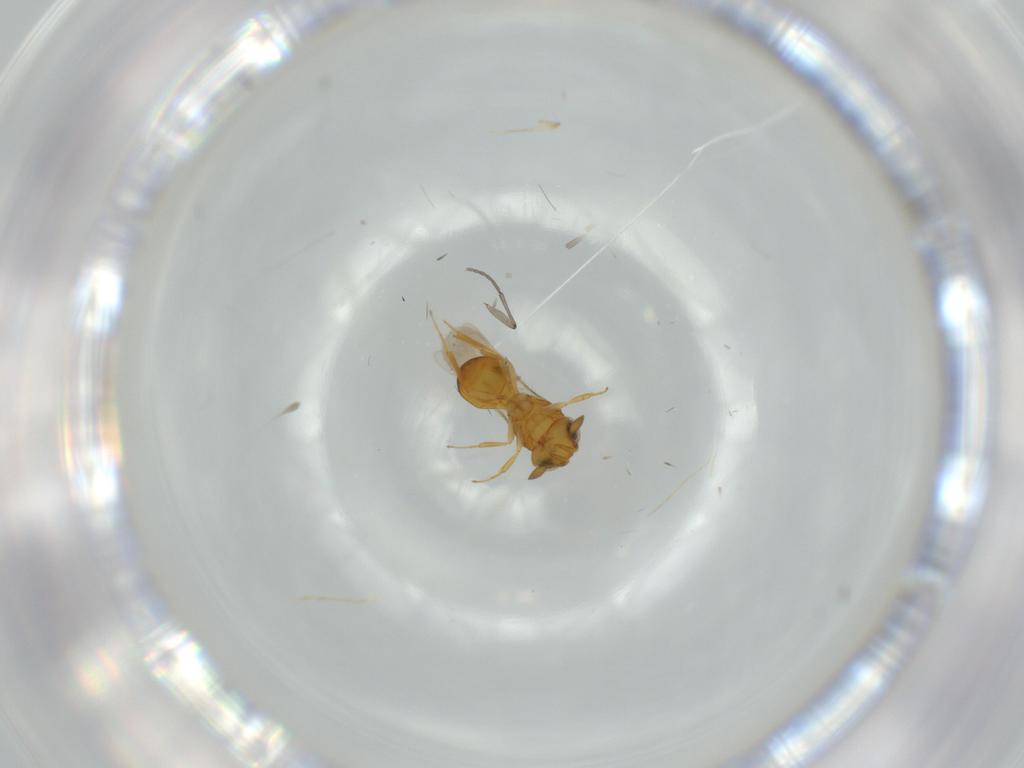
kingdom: Animalia
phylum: Arthropoda
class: Insecta
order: Hymenoptera
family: Scelionidae
